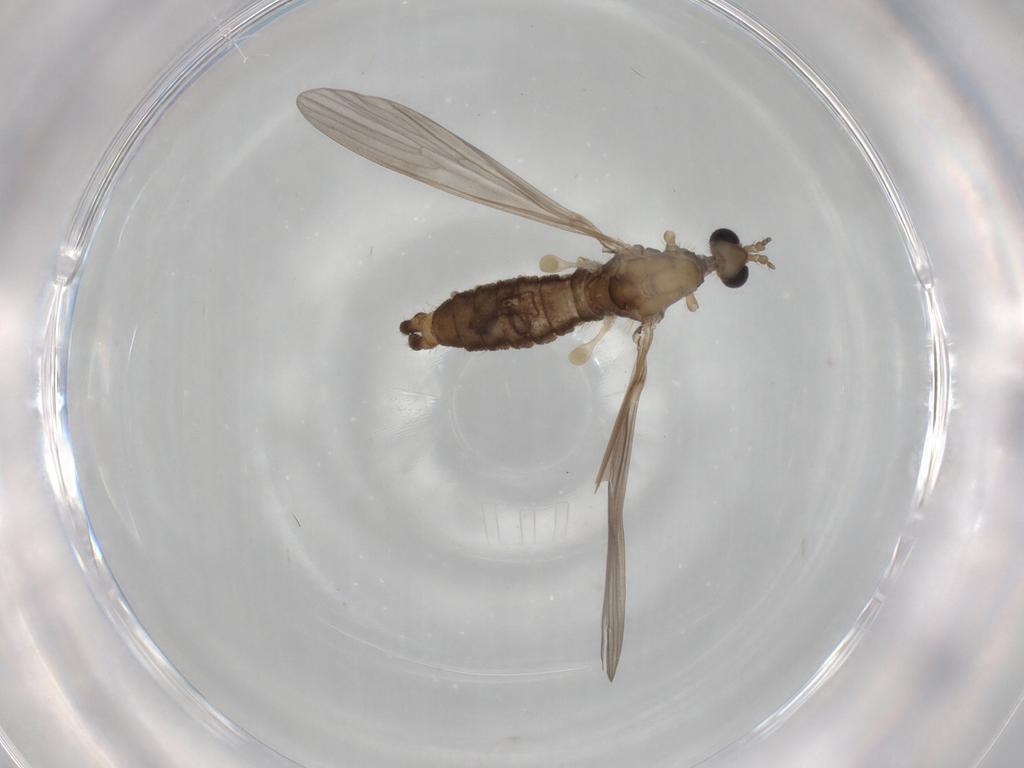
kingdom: Animalia
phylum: Arthropoda
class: Insecta
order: Diptera
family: Limoniidae
